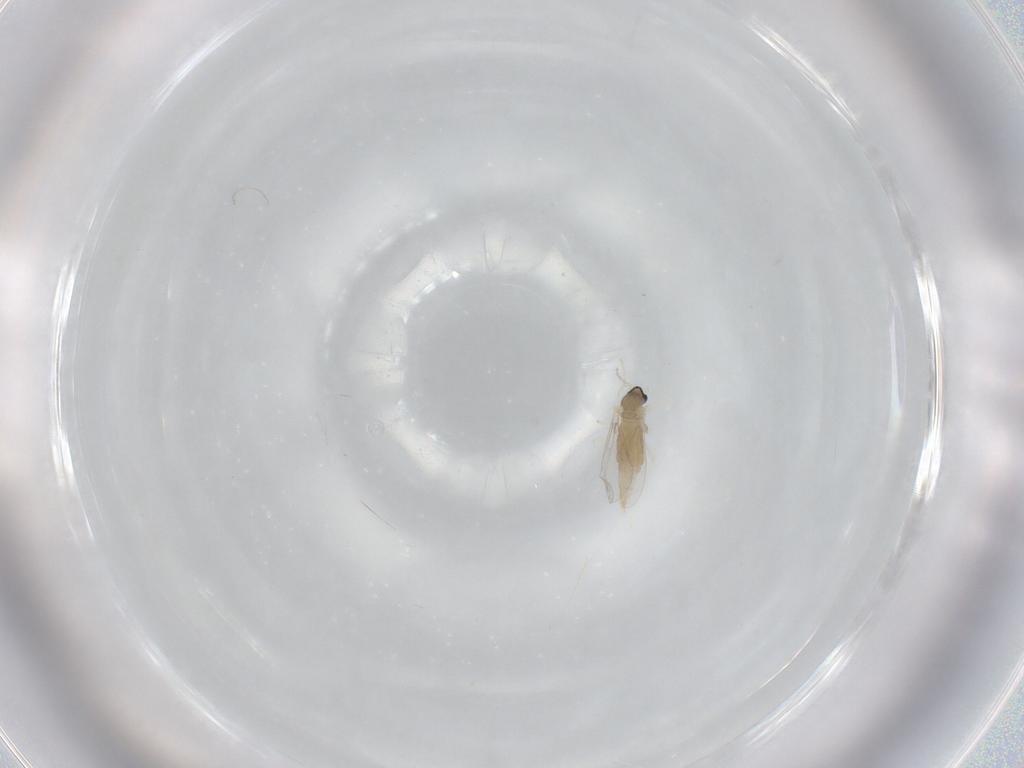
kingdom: Animalia
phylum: Arthropoda
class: Insecta
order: Diptera
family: Cecidomyiidae
